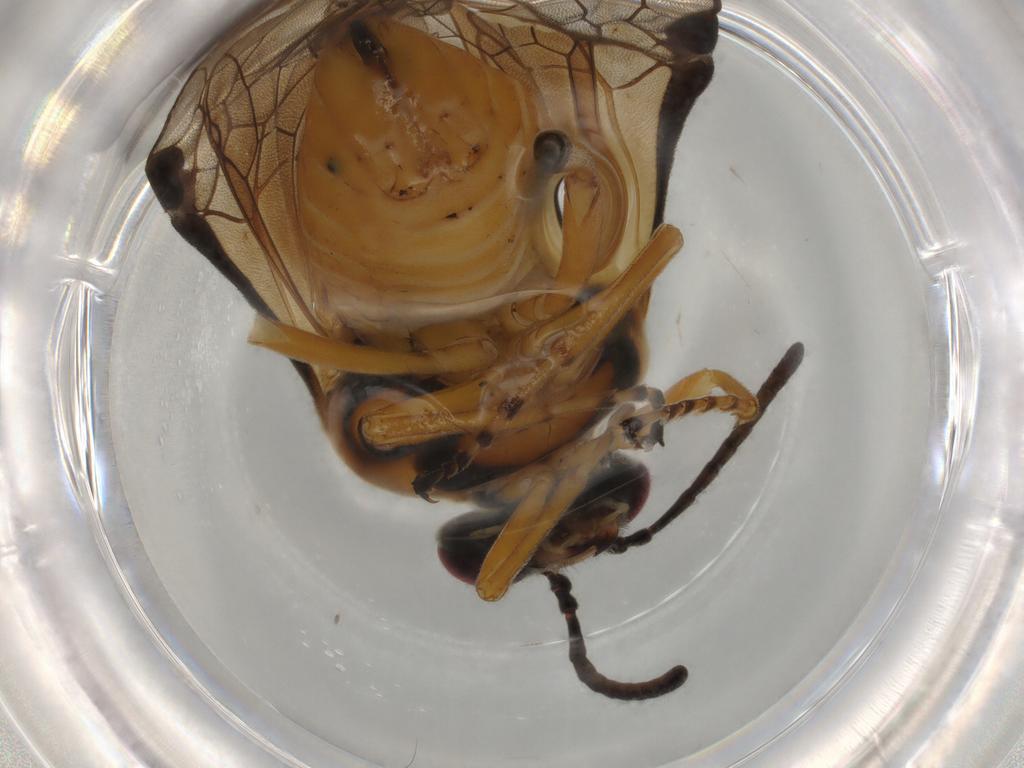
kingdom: Animalia
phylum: Arthropoda
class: Insecta
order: Hymenoptera
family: Tenthredinidae
